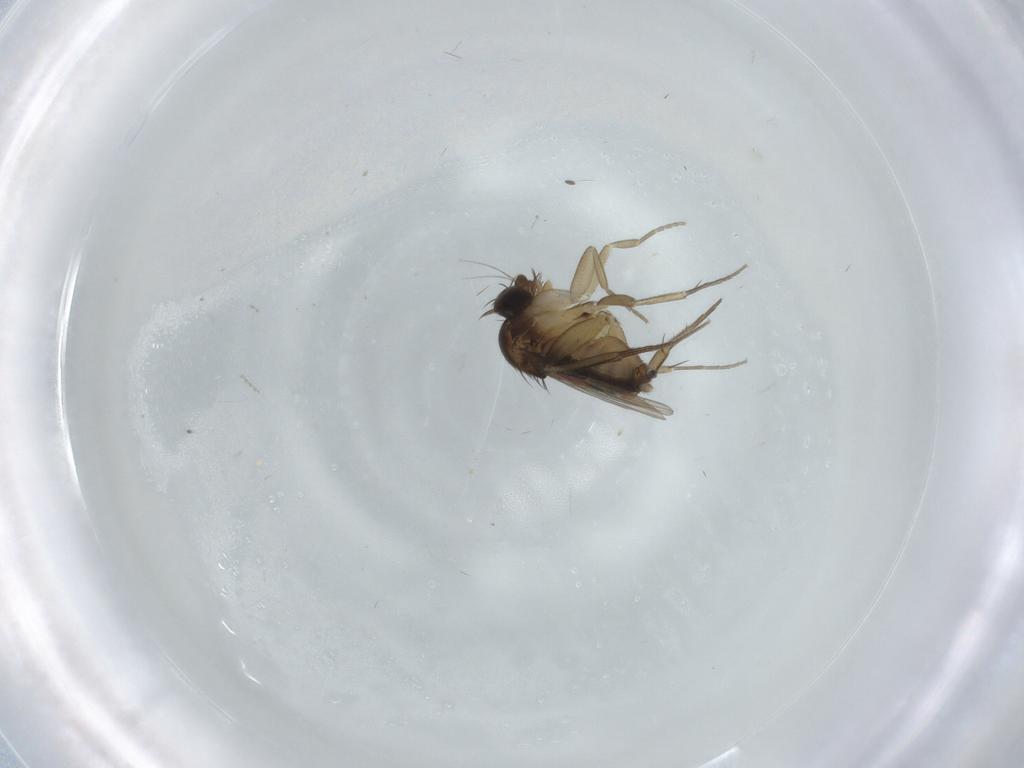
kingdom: Animalia
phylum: Arthropoda
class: Insecta
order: Diptera
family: Phoridae
